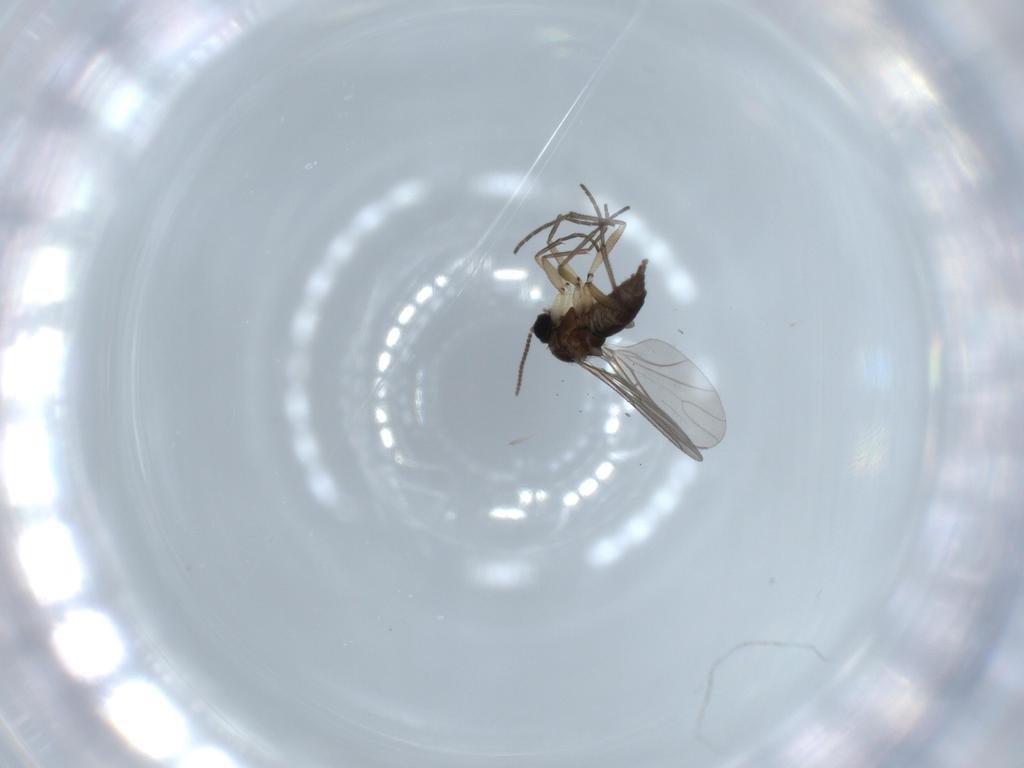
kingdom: Animalia
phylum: Arthropoda
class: Insecta
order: Diptera
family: Sciaridae
